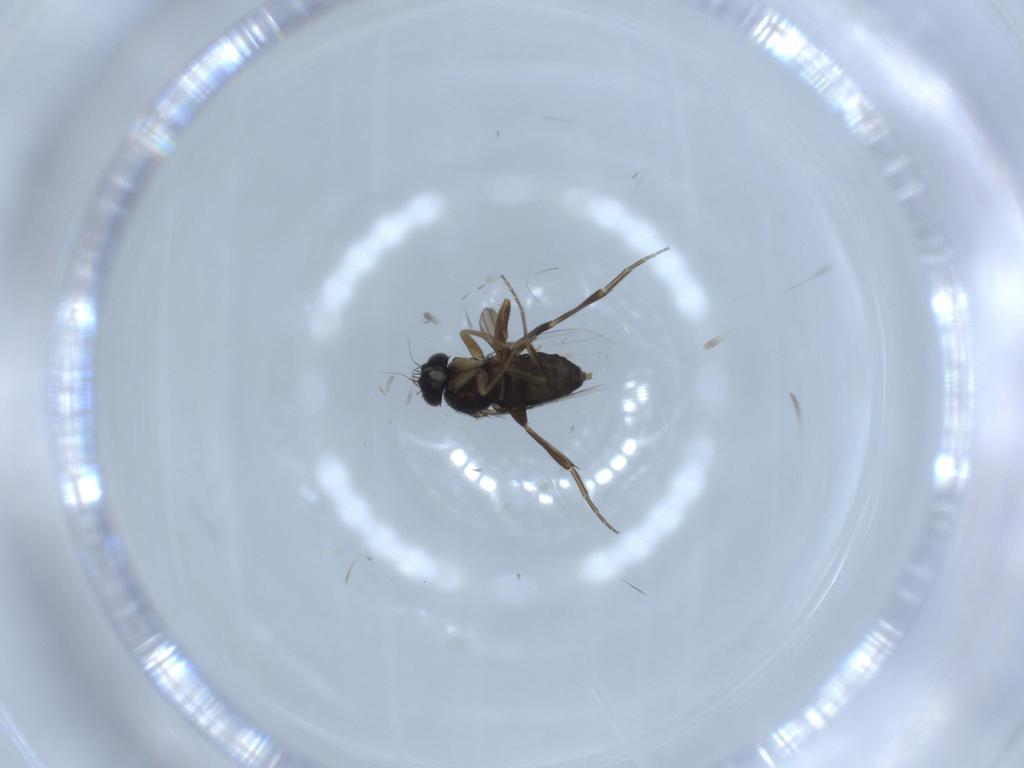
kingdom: Animalia
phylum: Arthropoda
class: Insecta
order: Diptera
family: Phoridae
